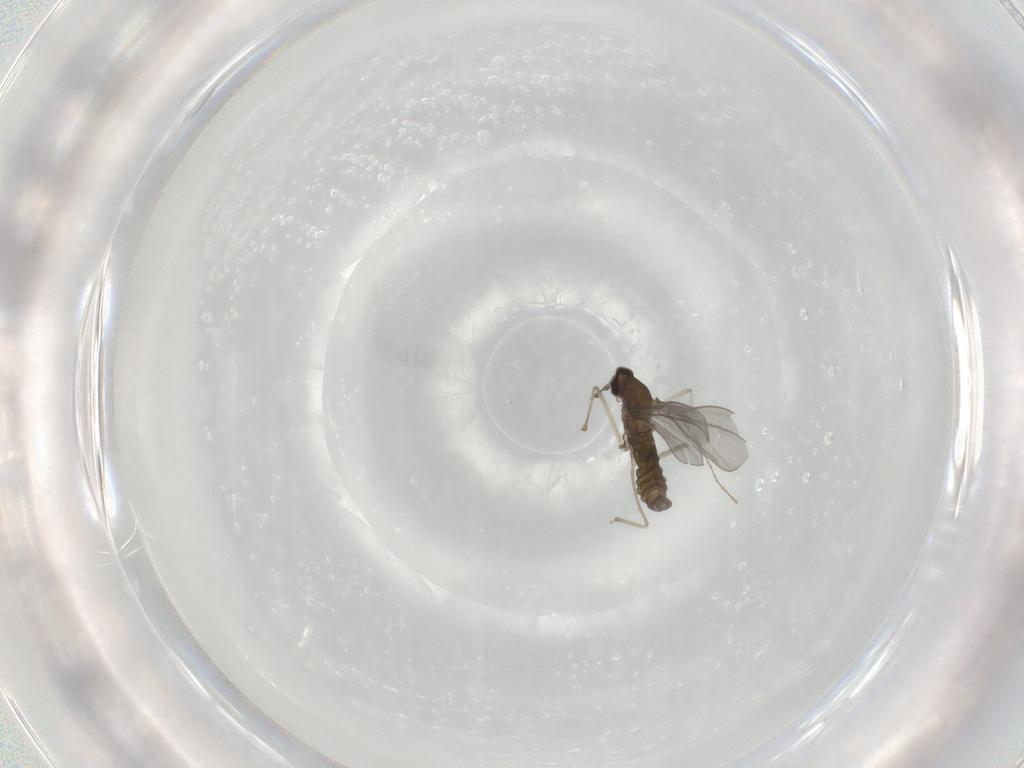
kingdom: Animalia
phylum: Arthropoda
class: Insecta
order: Diptera
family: Cecidomyiidae
